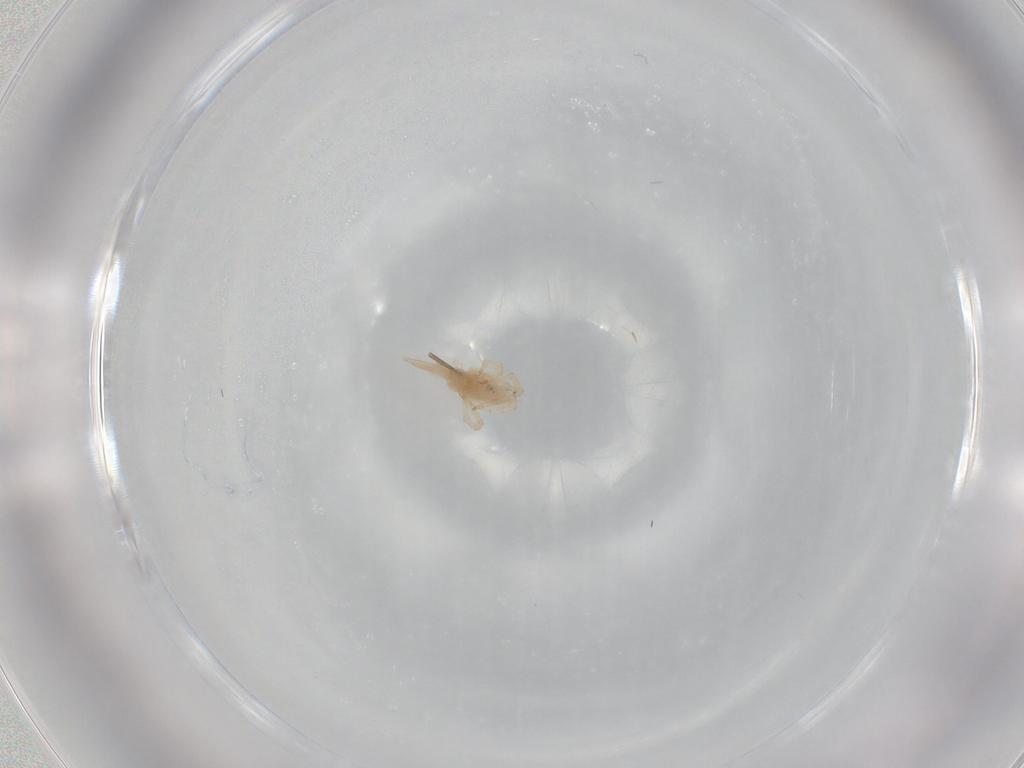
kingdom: Animalia
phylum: Arthropoda
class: Arachnida
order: Trombidiformes
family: Bdellidae
